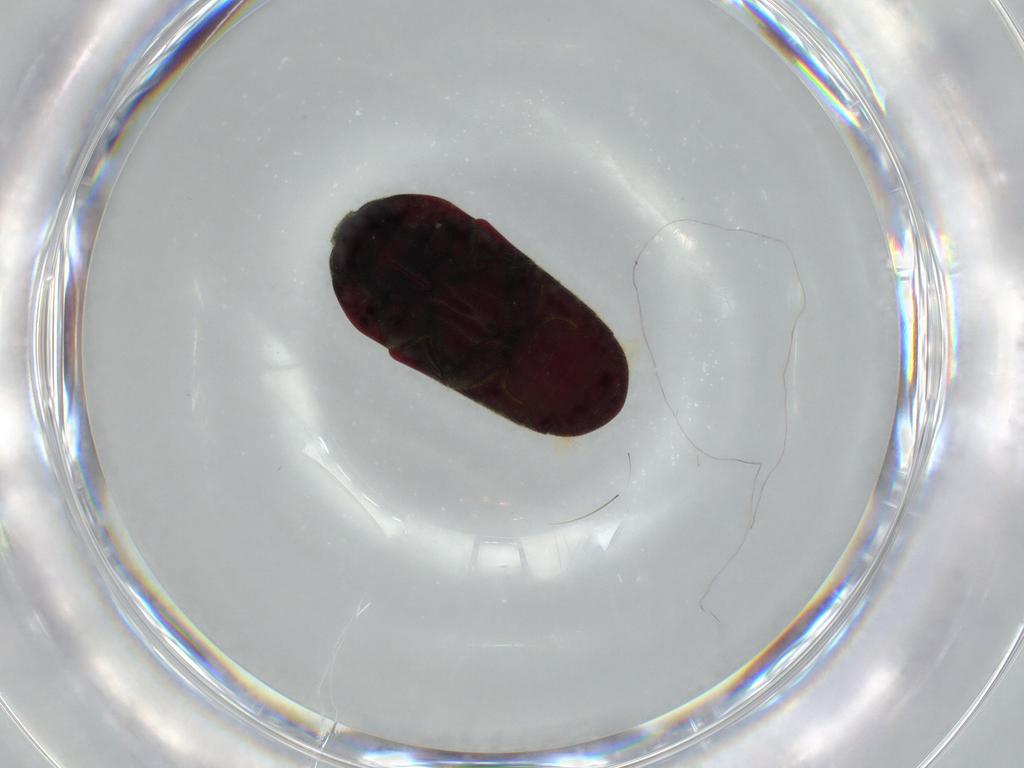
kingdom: Animalia
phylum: Arthropoda
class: Insecta
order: Coleoptera
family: Throscidae
